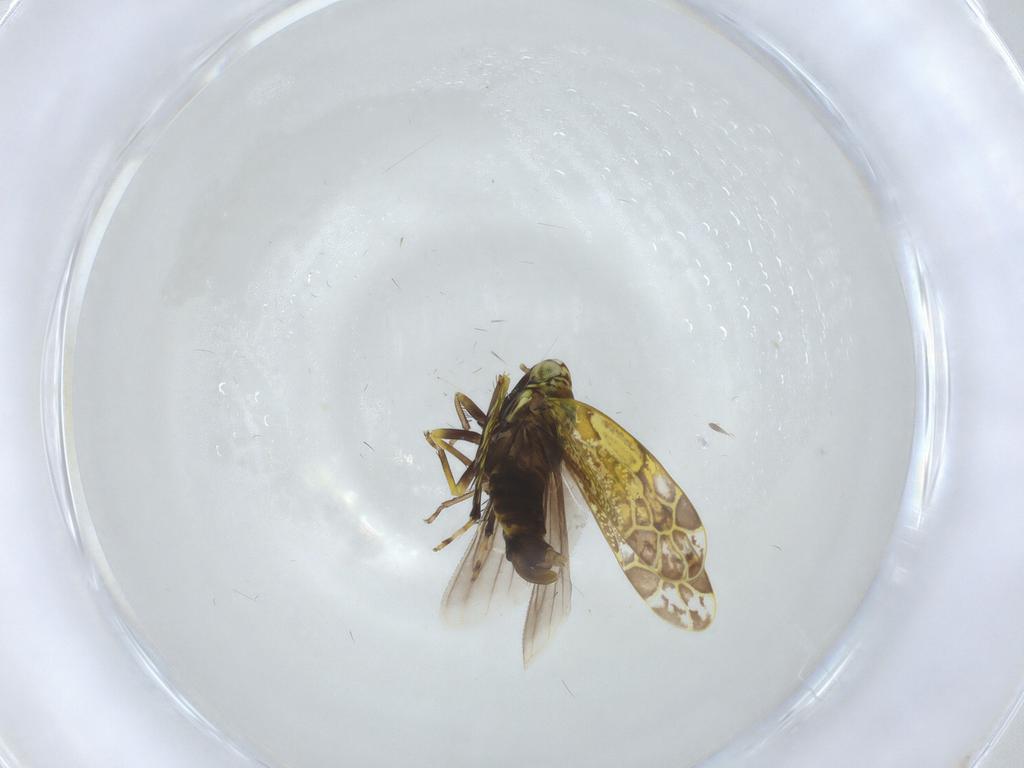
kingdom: Animalia
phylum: Arthropoda
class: Insecta
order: Hemiptera
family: Cicadellidae
